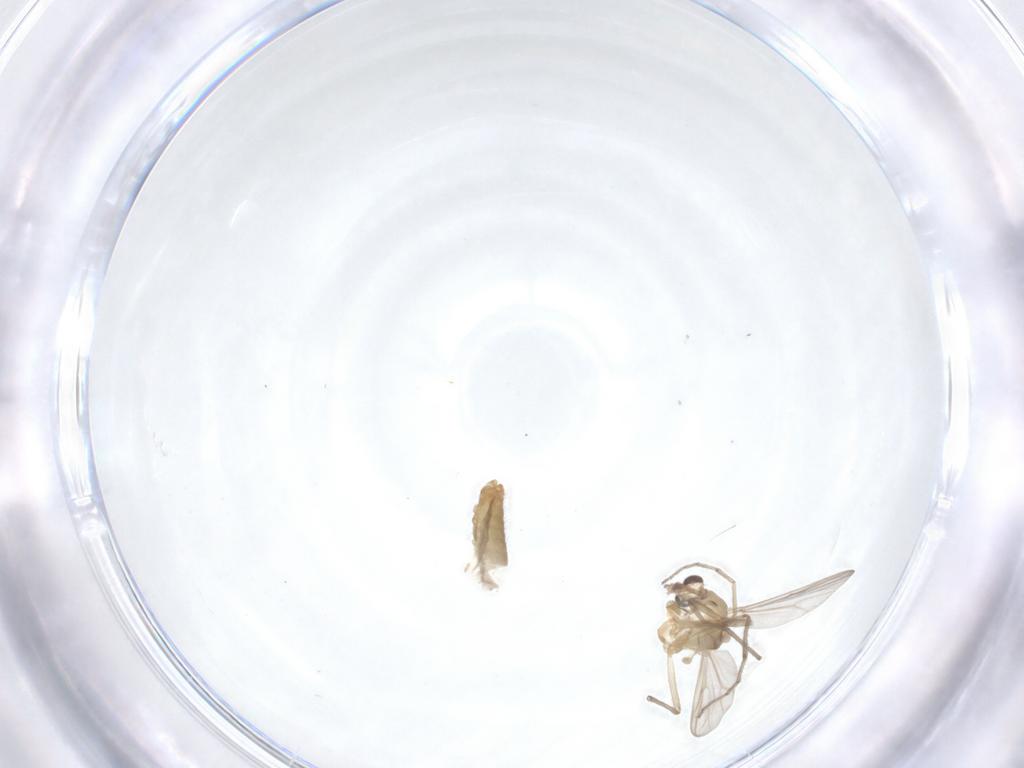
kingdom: Animalia
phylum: Arthropoda
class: Insecta
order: Diptera
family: Chironomidae
